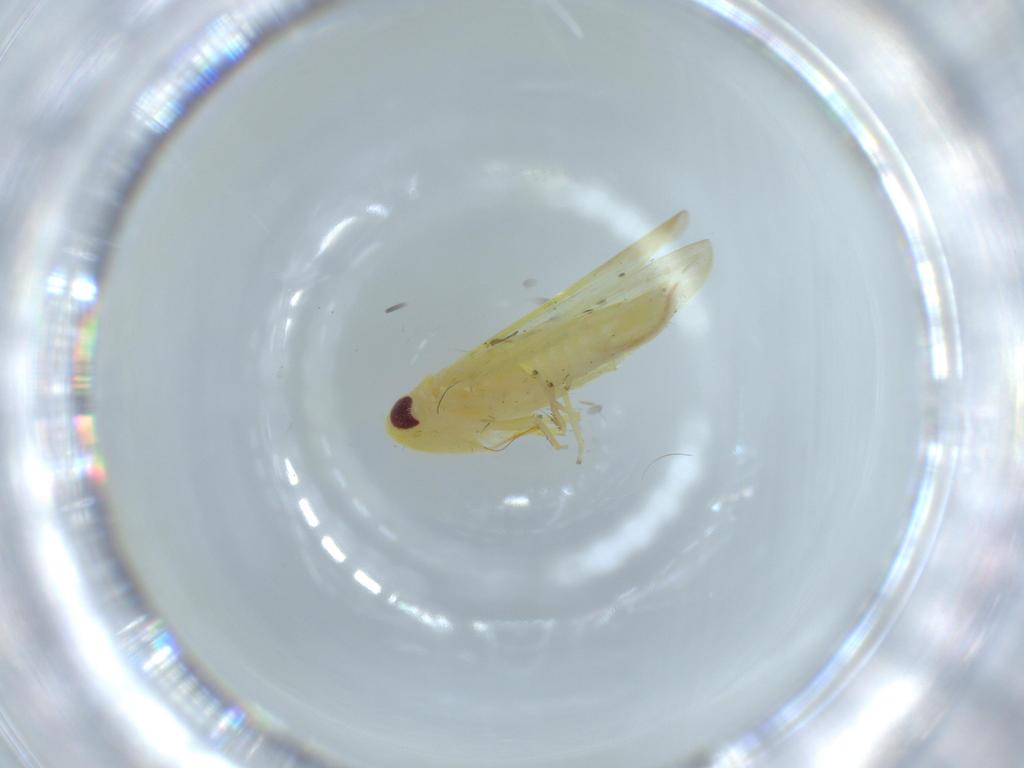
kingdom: Animalia
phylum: Arthropoda
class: Insecta
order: Hemiptera
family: Cicadellidae
